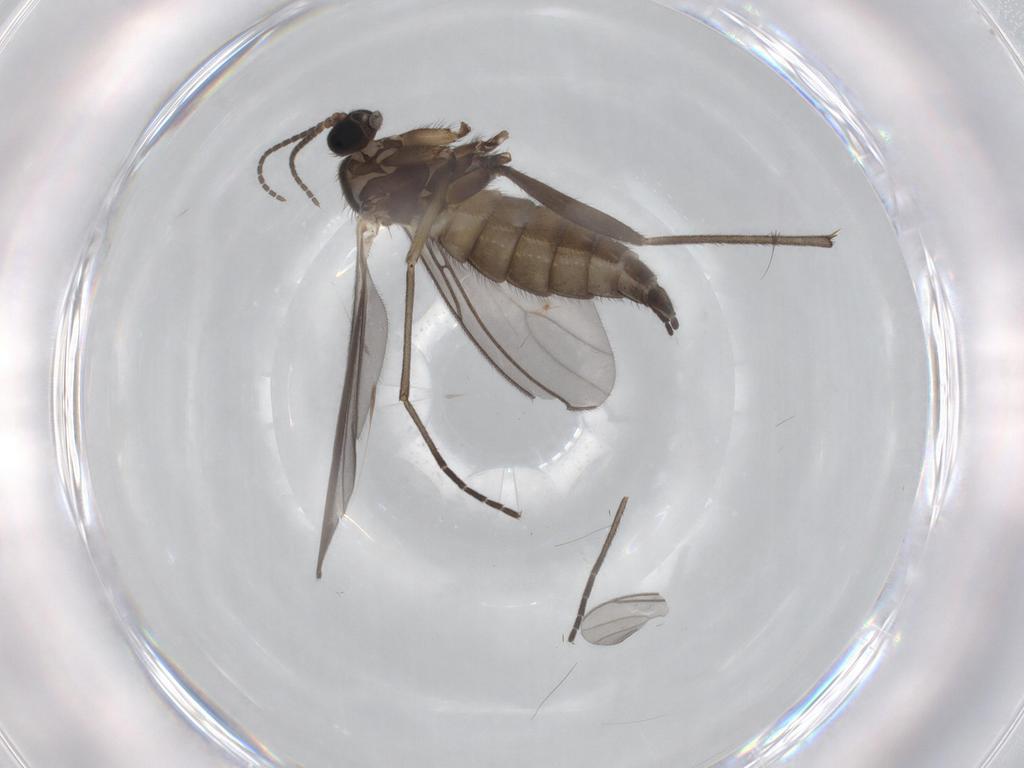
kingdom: Animalia
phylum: Arthropoda
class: Insecta
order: Diptera
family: Sciaridae
